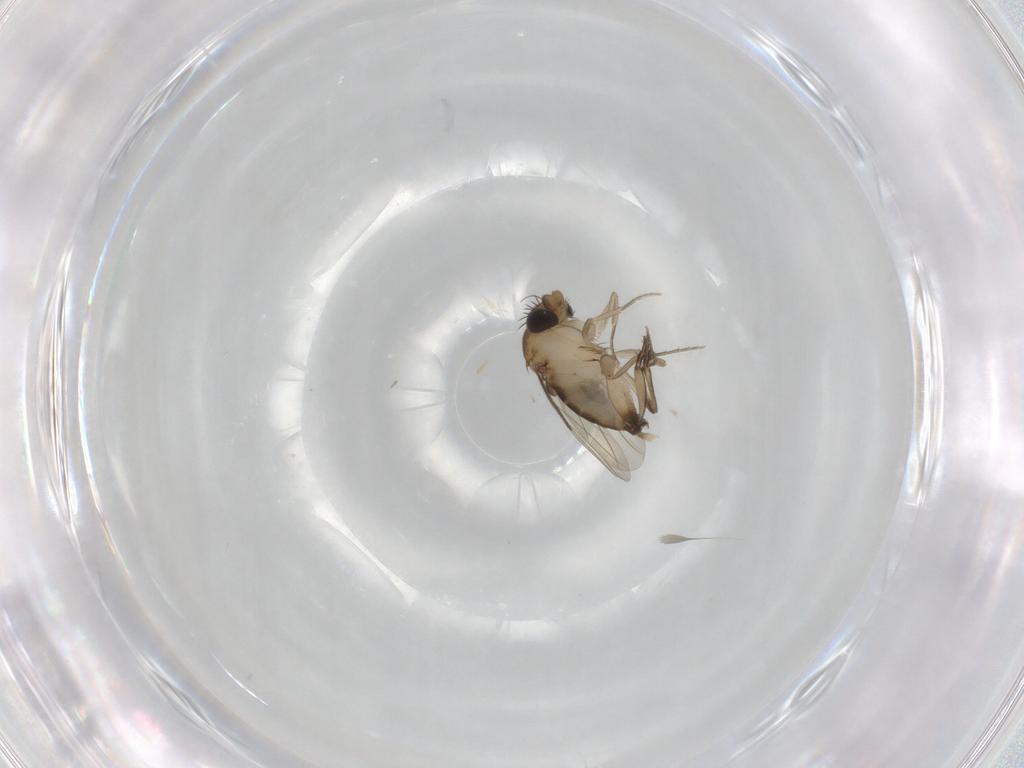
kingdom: Animalia
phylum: Arthropoda
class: Insecta
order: Diptera
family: Phoridae
